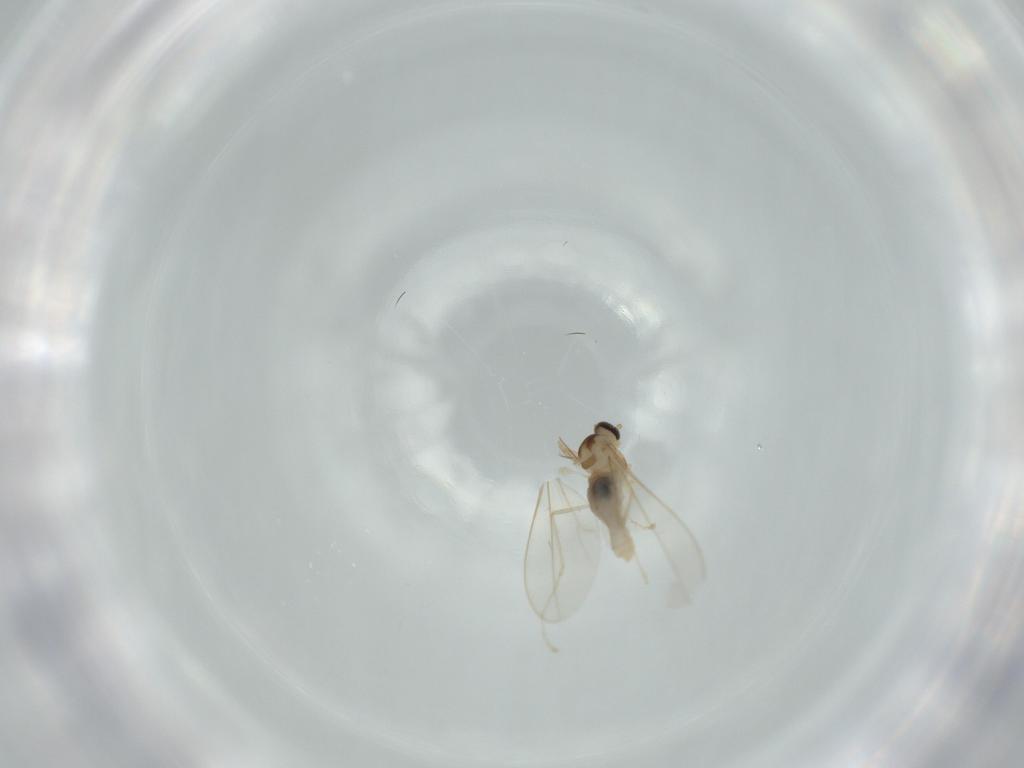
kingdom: Animalia
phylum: Arthropoda
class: Insecta
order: Diptera
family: Cecidomyiidae
